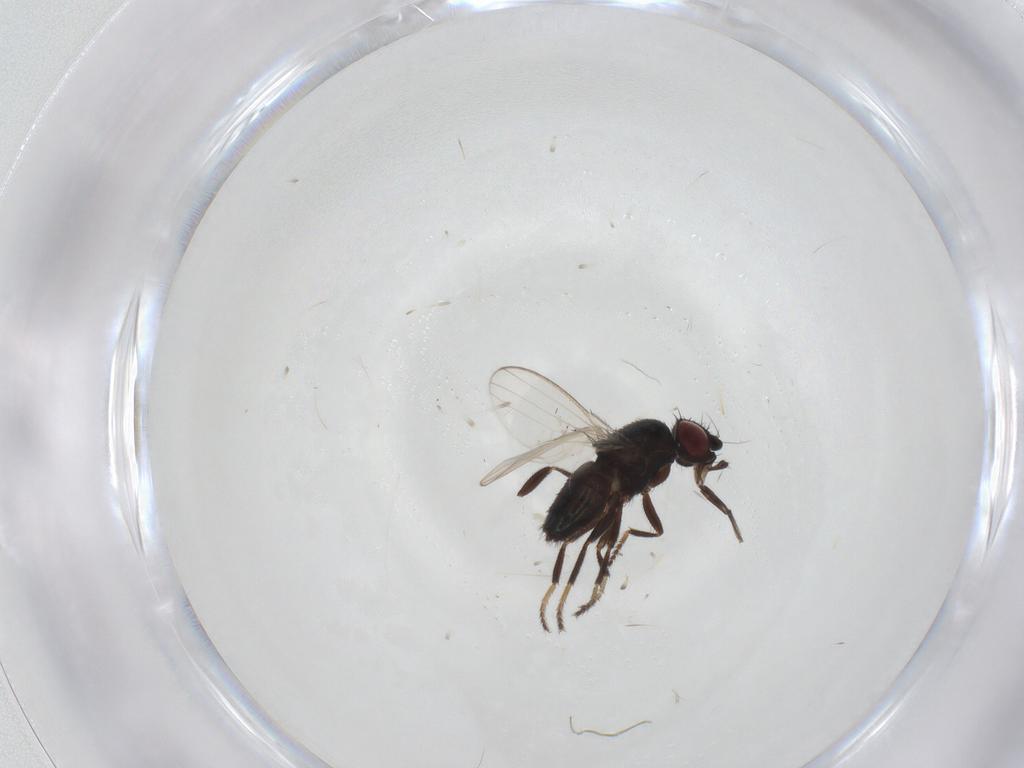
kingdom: Animalia
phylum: Arthropoda
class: Insecta
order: Diptera
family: Milichiidae
